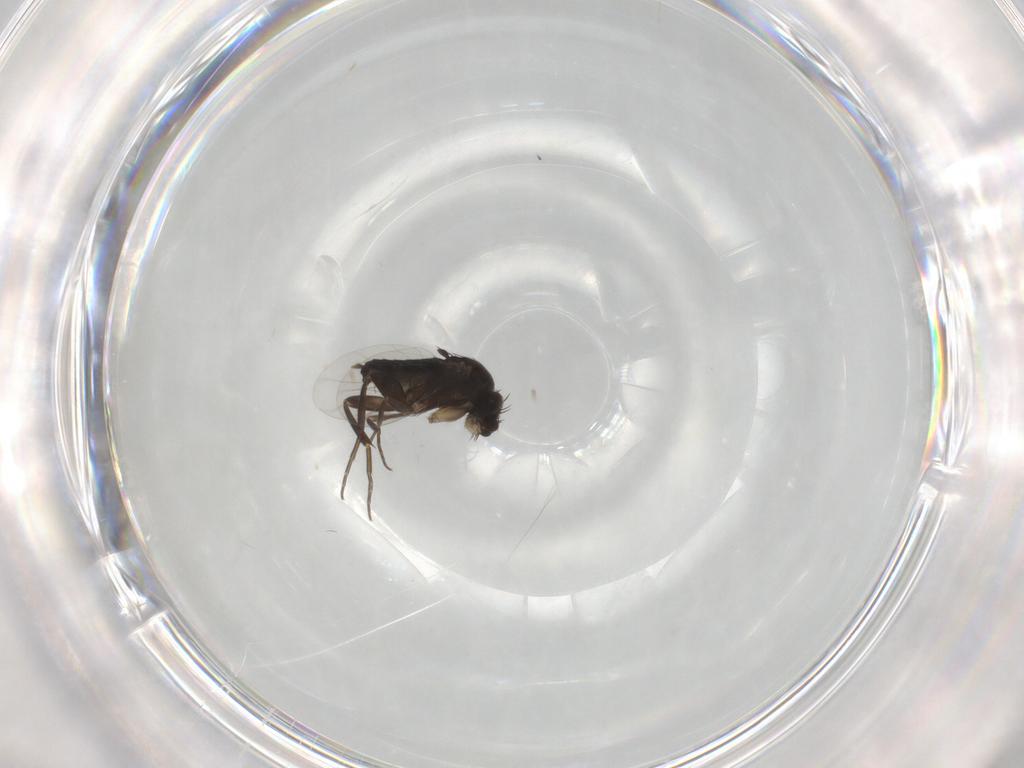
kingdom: Animalia
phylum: Arthropoda
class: Insecta
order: Diptera
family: Phoridae
